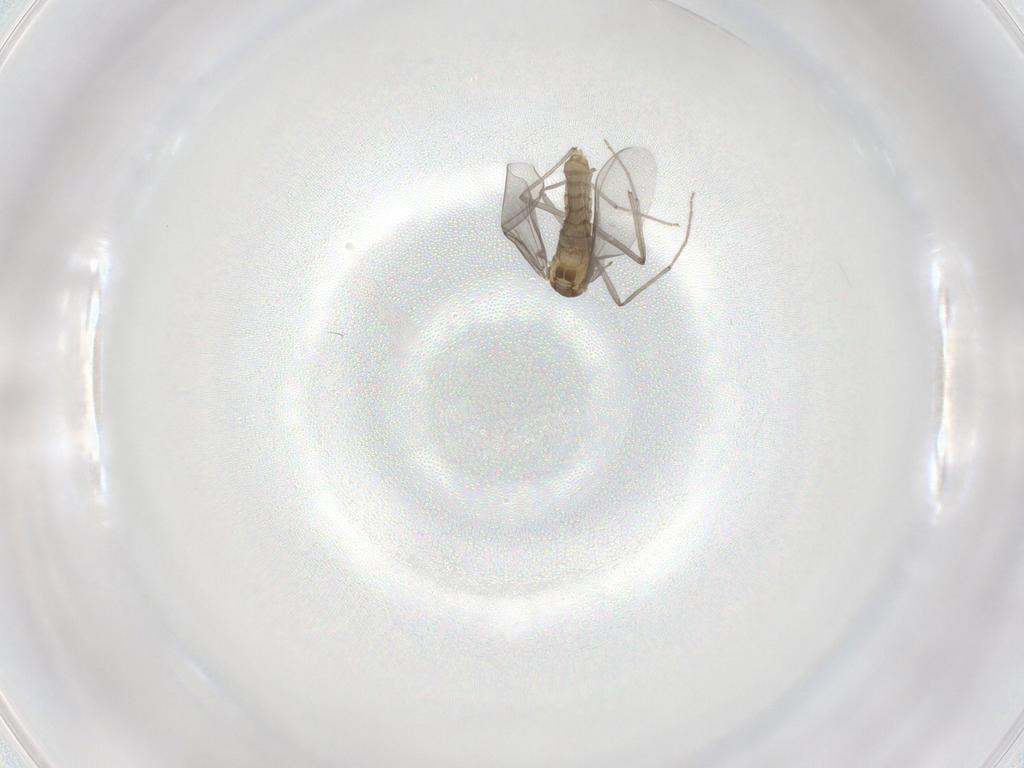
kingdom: Animalia
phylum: Arthropoda
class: Insecta
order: Diptera
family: Chironomidae
